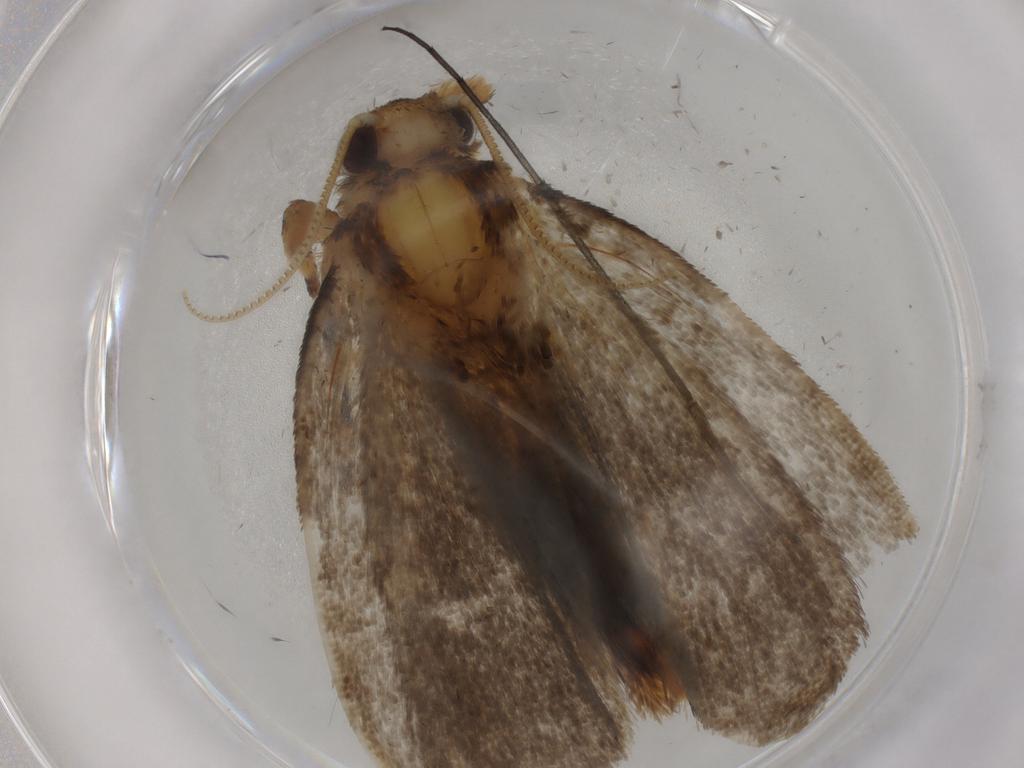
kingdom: Animalia
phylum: Arthropoda
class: Insecta
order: Lepidoptera
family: Tineidae
